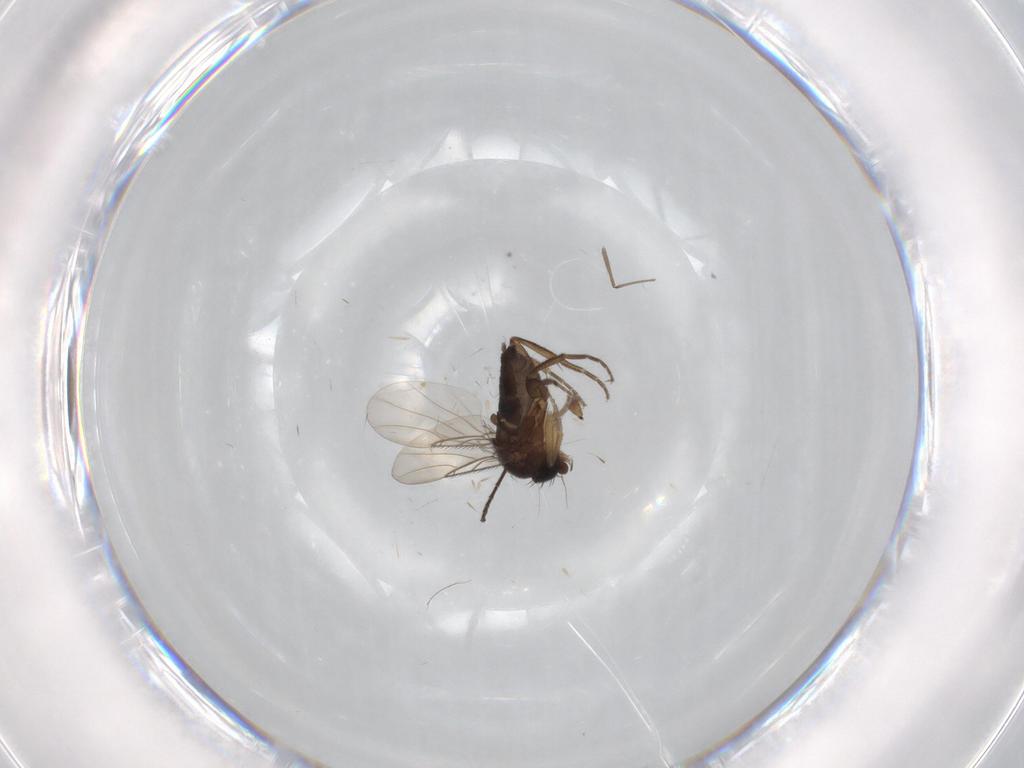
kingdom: Animalia
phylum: Arthropoda
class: Insecta
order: Diptera
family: Phoridae
